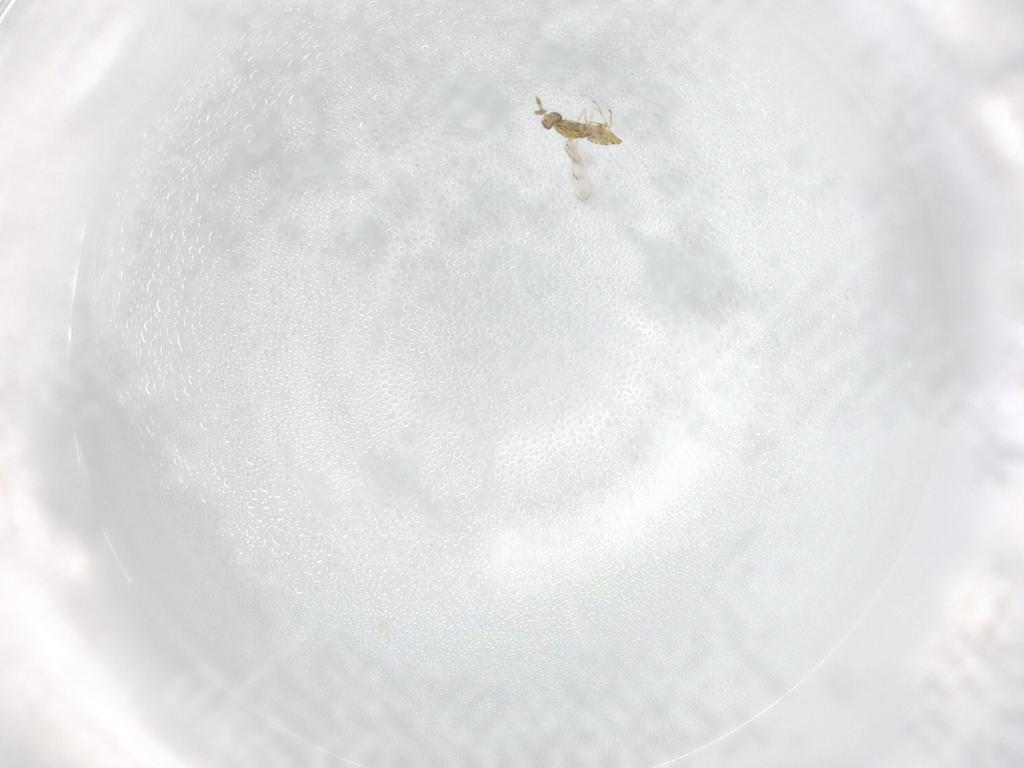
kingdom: Animalia
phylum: Arthropoda
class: Insecta
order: Hymenoptera
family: Eulophidae
